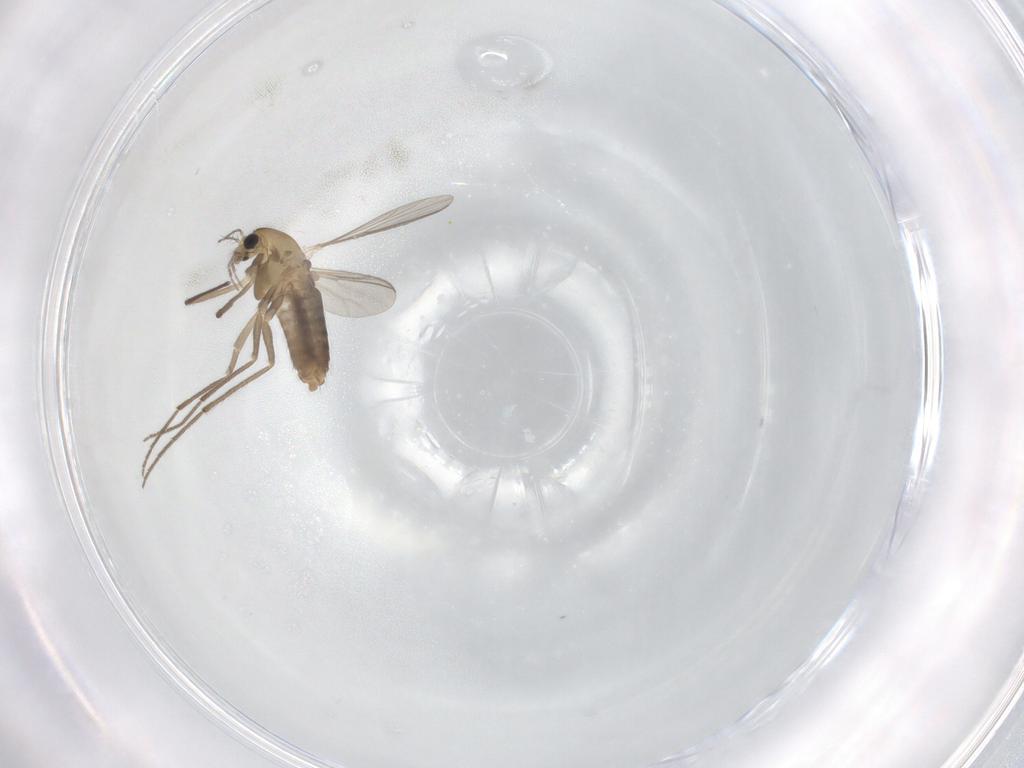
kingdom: Animalia
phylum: Arthropoda
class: Insecta
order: Diptera
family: Chironomidae
